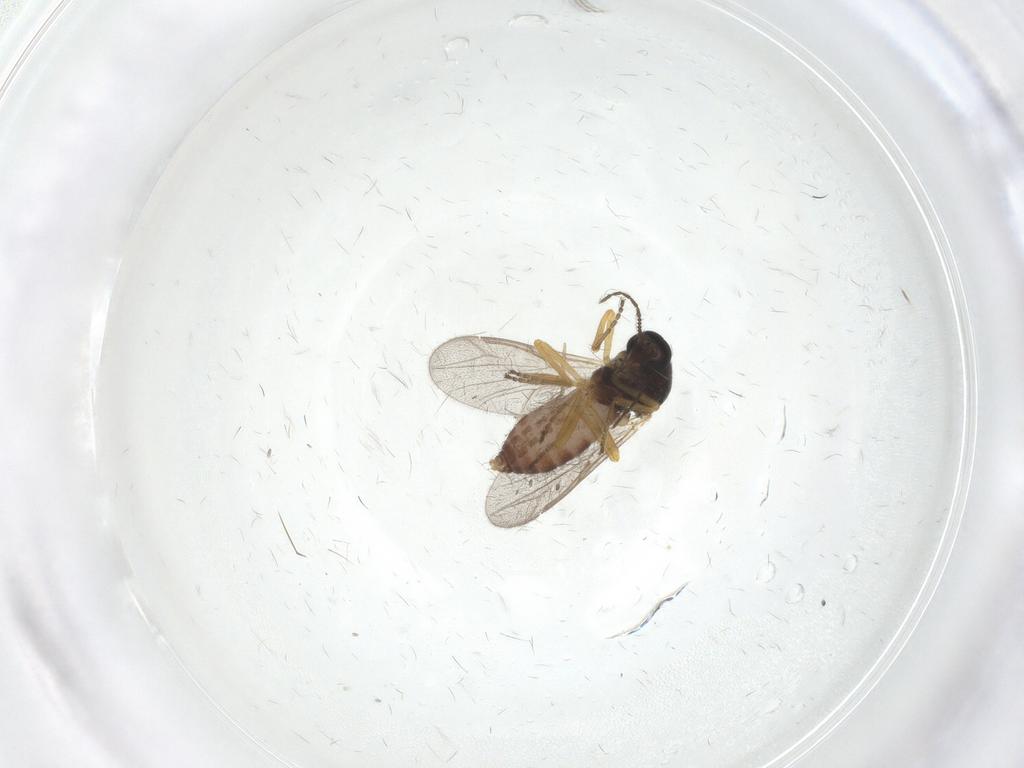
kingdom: Animalia
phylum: Arthropoda
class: Insecta
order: Diptera
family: Ceratopogonidae
